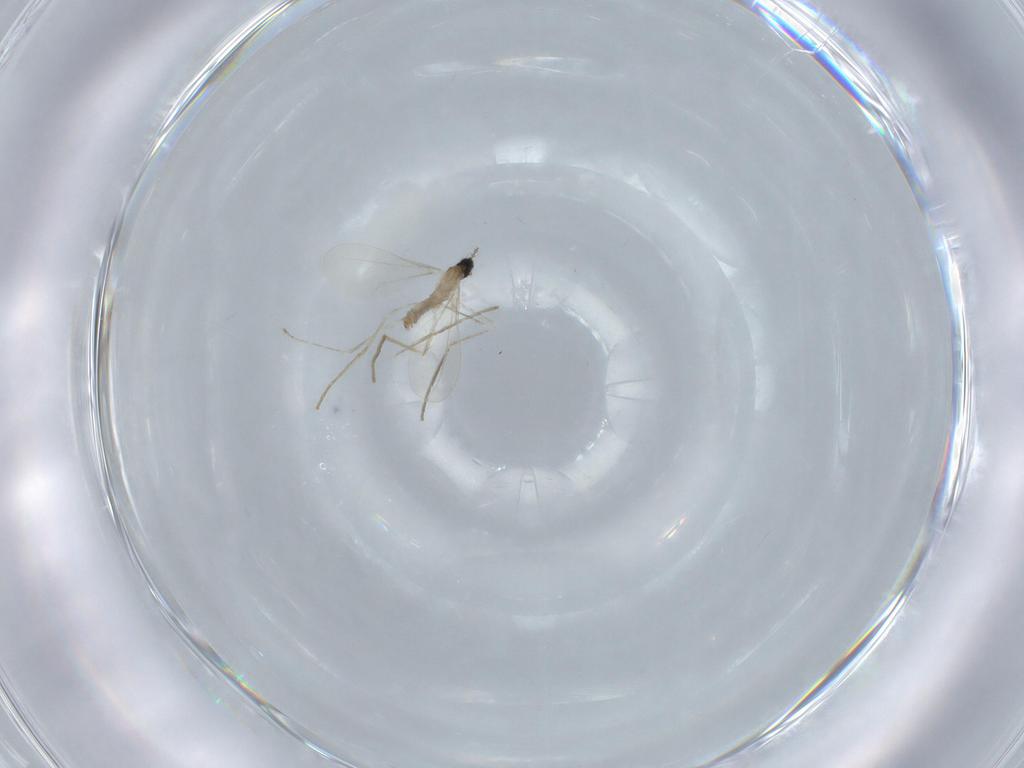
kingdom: Animalia
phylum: Arthropoda
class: Insecta
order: Diptera
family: Cecidomyiidae
